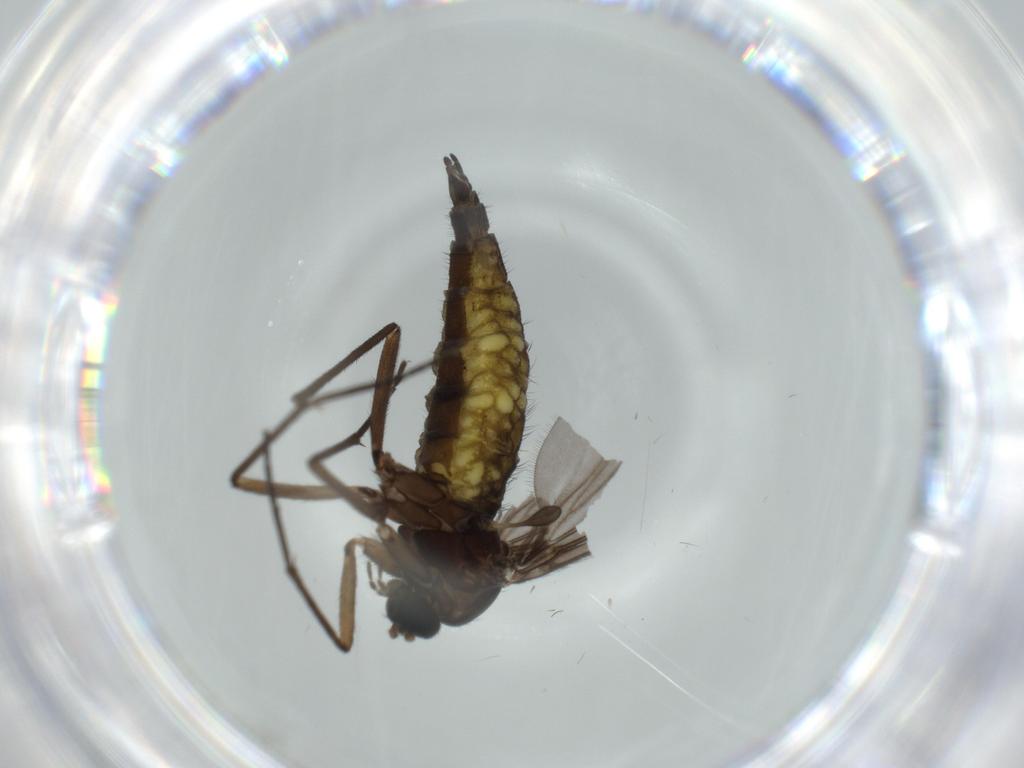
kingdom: Animalia
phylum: Arthropoda
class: Insecta
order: Diptera
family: Sciaridae
